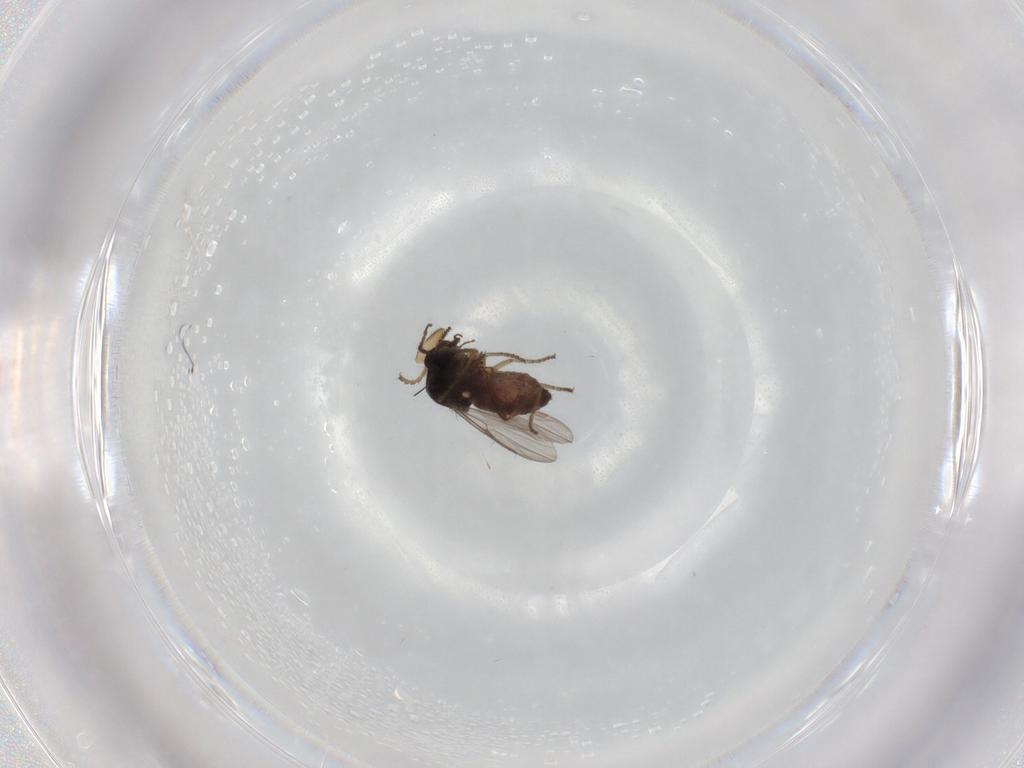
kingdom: Animalia
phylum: Arthropoda
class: Insecta
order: Diptera
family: Ceratopogonidae
